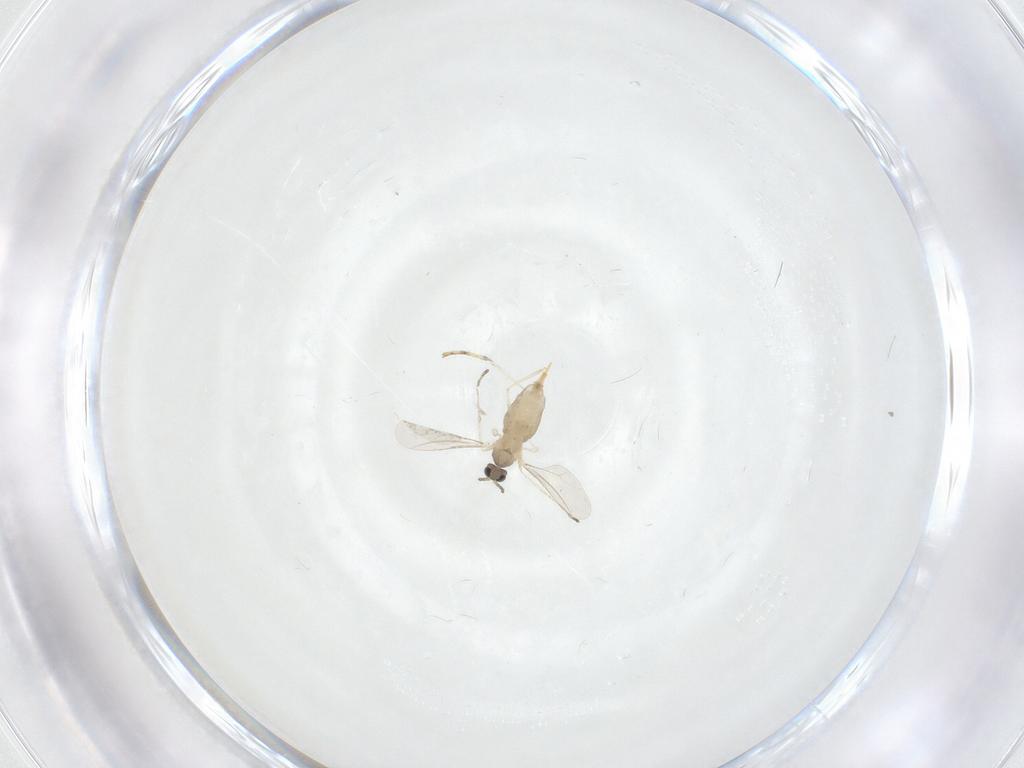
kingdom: Animalia
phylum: Arthropoda
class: Insecta
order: Diptera
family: Cecidomyiidae
